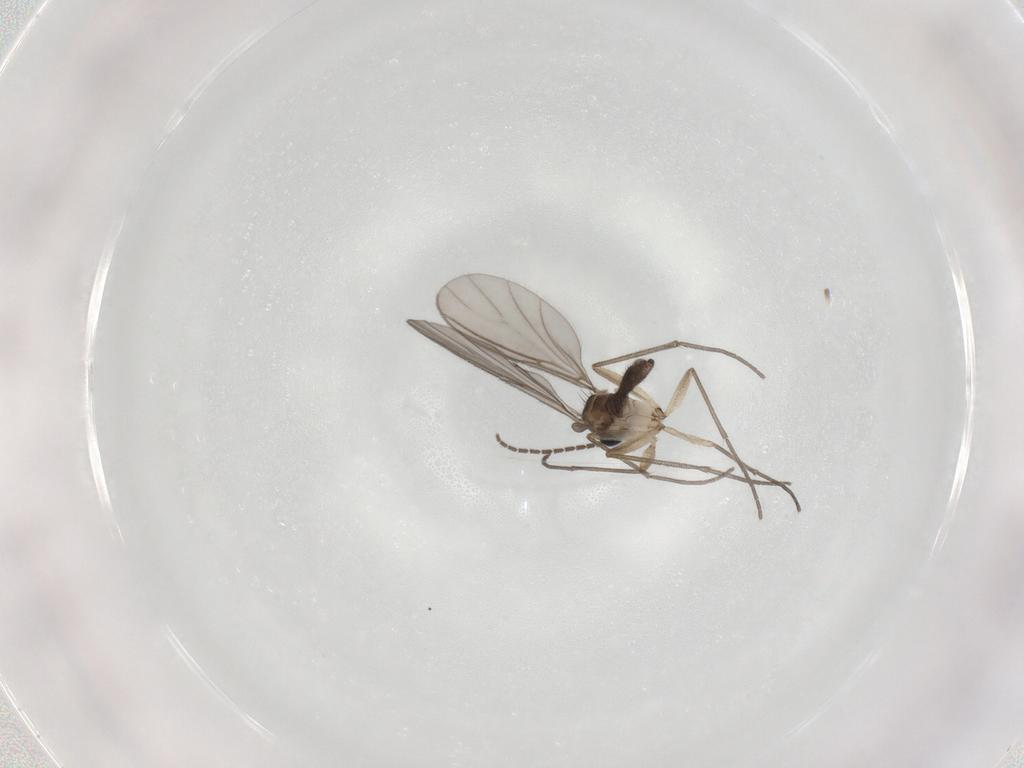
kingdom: Animalia
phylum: Arthropoda
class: Insecta
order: Diptera
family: Sciaridae
